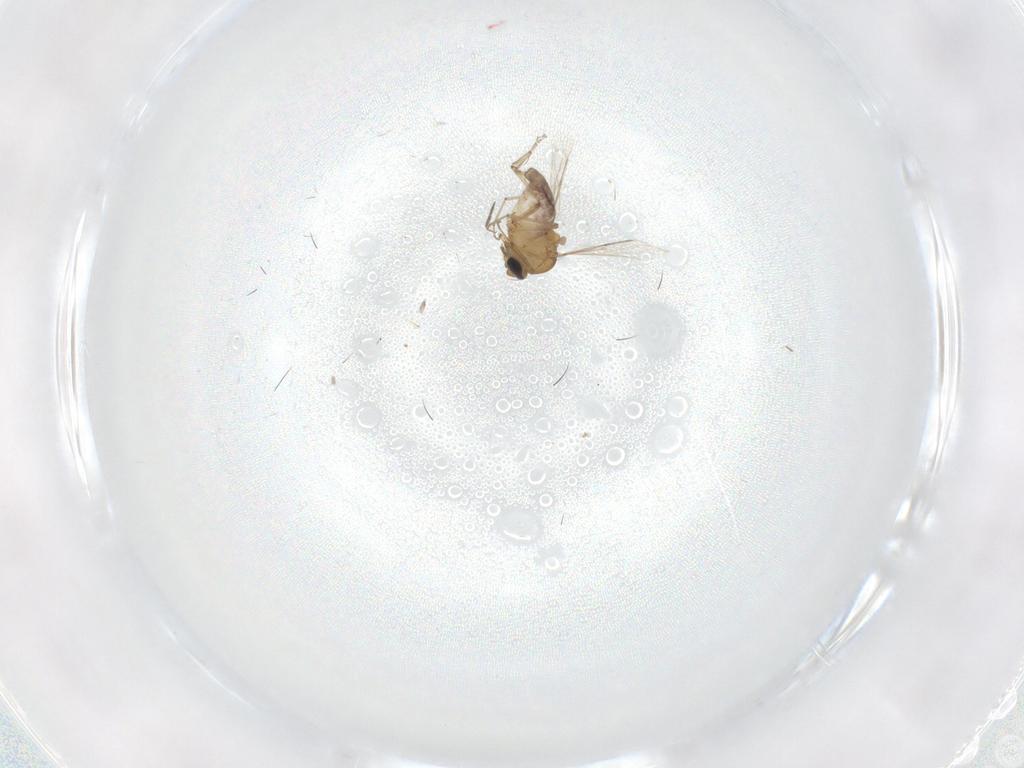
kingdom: Animalia
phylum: Arthropoda
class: Insecta
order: Diptera
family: Ceratopogonidae
